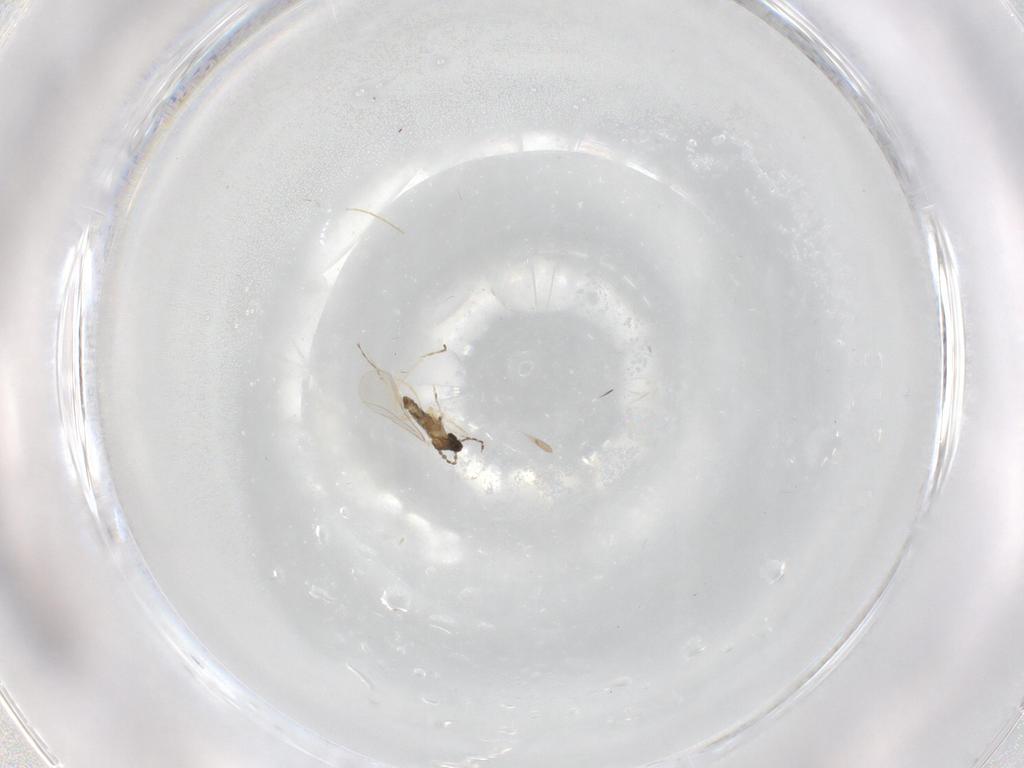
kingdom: Animalia
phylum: Arthropoda
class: Insecta
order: Diptera
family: Cecidomyiidae
